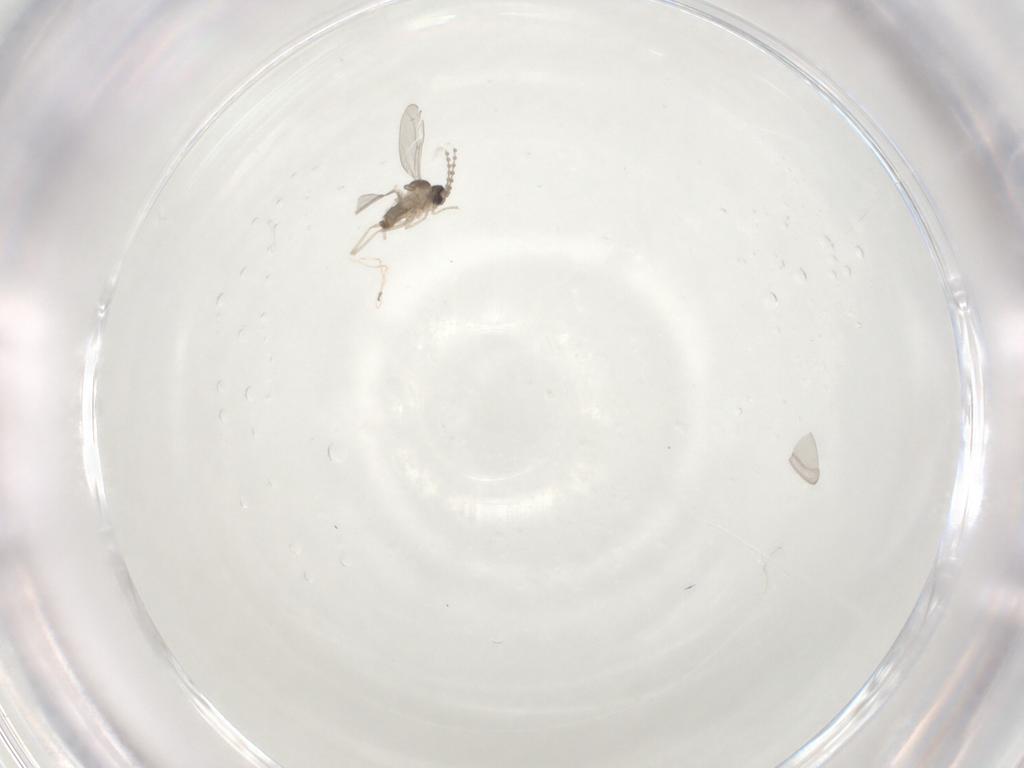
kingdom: Animalia
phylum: Arthropoda
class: Insecta
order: Diptera
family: Cecidomyiidae
